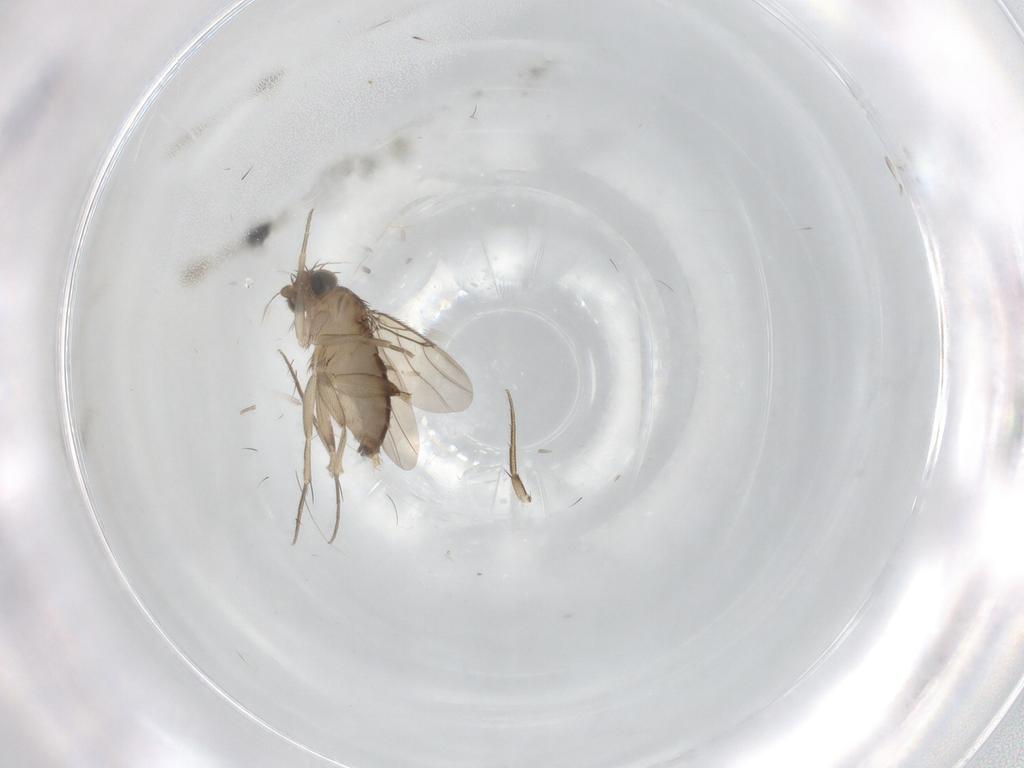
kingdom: Animalia
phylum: Arthropoda
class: Insecta
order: Diptera
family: Phoridae
